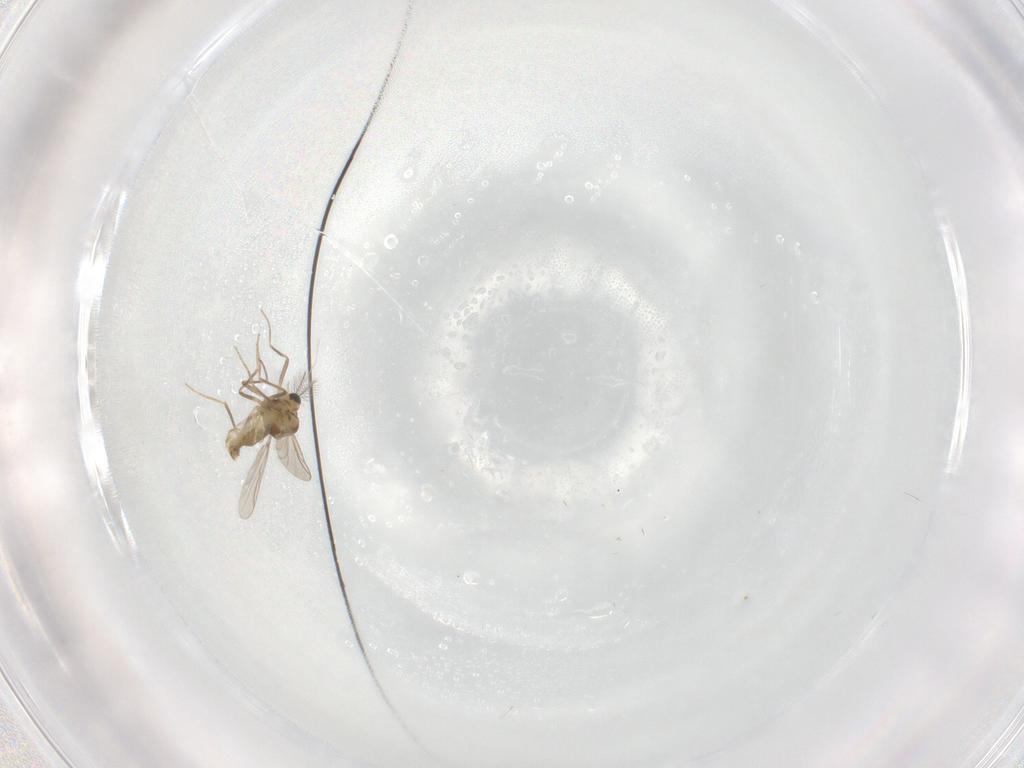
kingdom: Animalia
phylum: Arthropoda
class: Insecta
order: Diptera
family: Chironomidae
